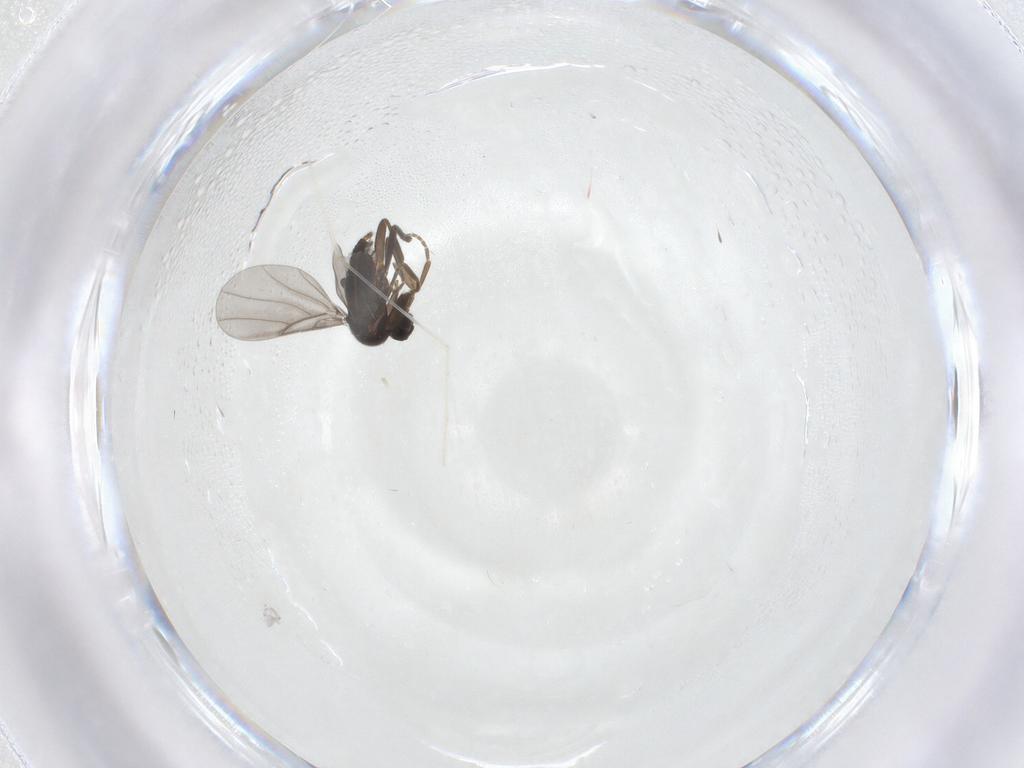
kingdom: Animalia
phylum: Arthropoda
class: Insecta
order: Diptera
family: Cecidomyiidae
